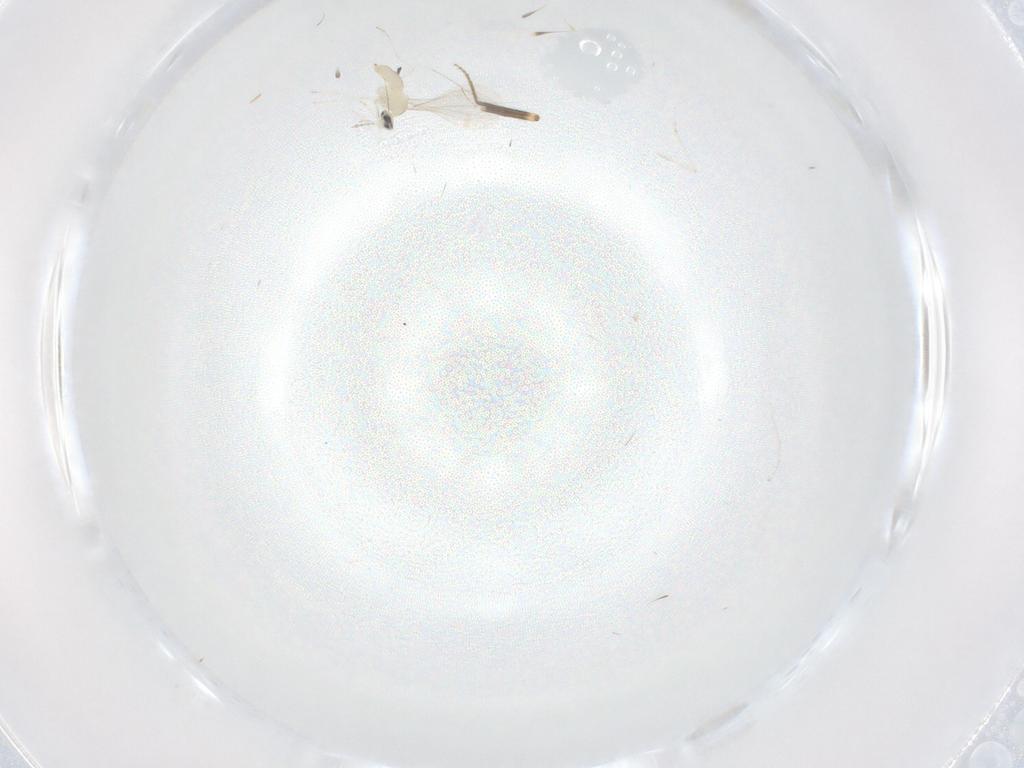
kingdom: Animalia
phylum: Arthropoda
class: Insecta
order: Diptera
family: Ceratopogonidae
